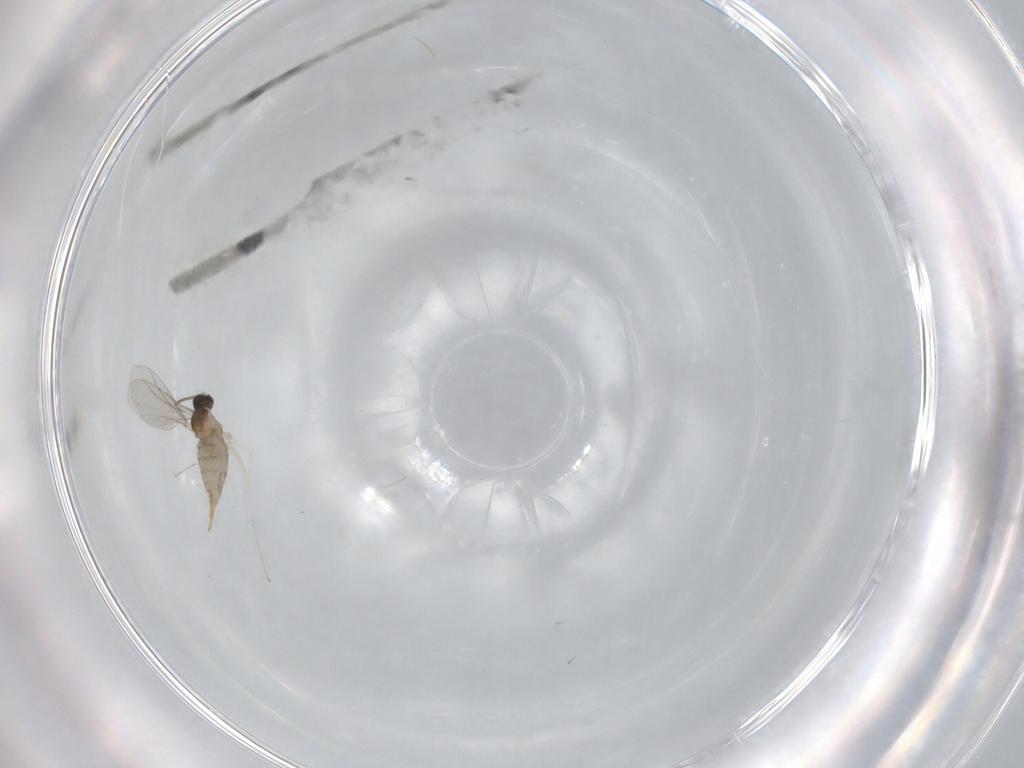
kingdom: Animalia
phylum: Arthropoda
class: Insecta
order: Diptera
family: Cecidomyiidae
